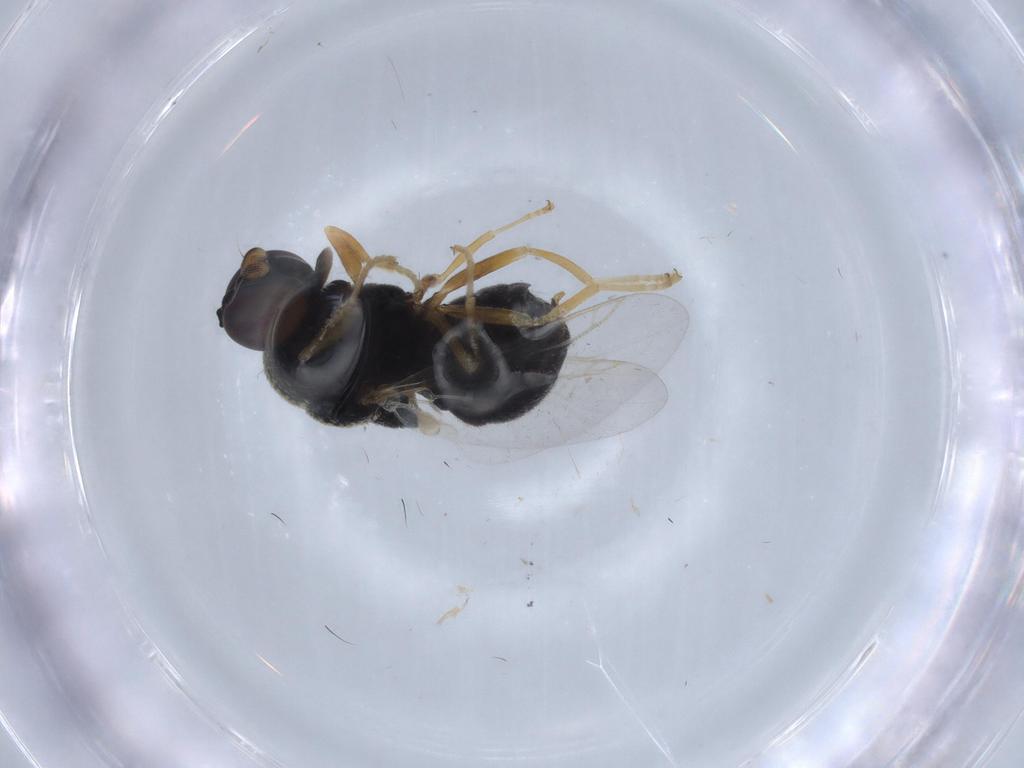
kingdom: Animalia
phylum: Arthropoda
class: Insecta
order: Diptera
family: Stratiomyidae
